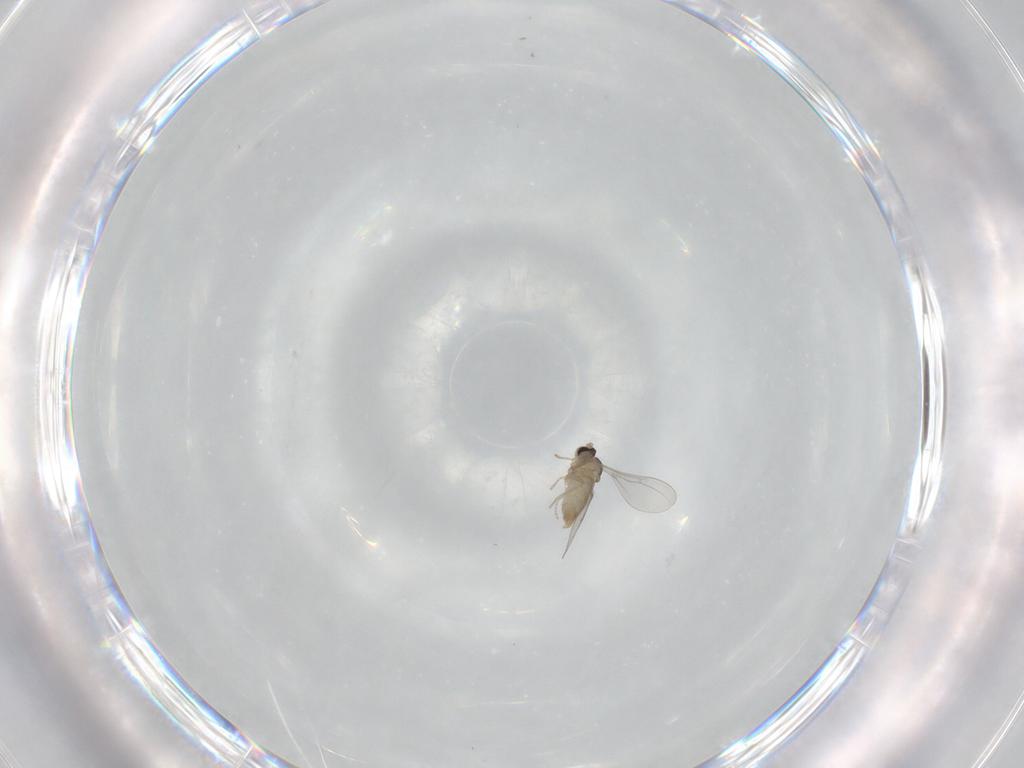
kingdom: Animalia
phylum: Arthropoda
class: Insecta
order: Diptera
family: Cecidomyiidae
